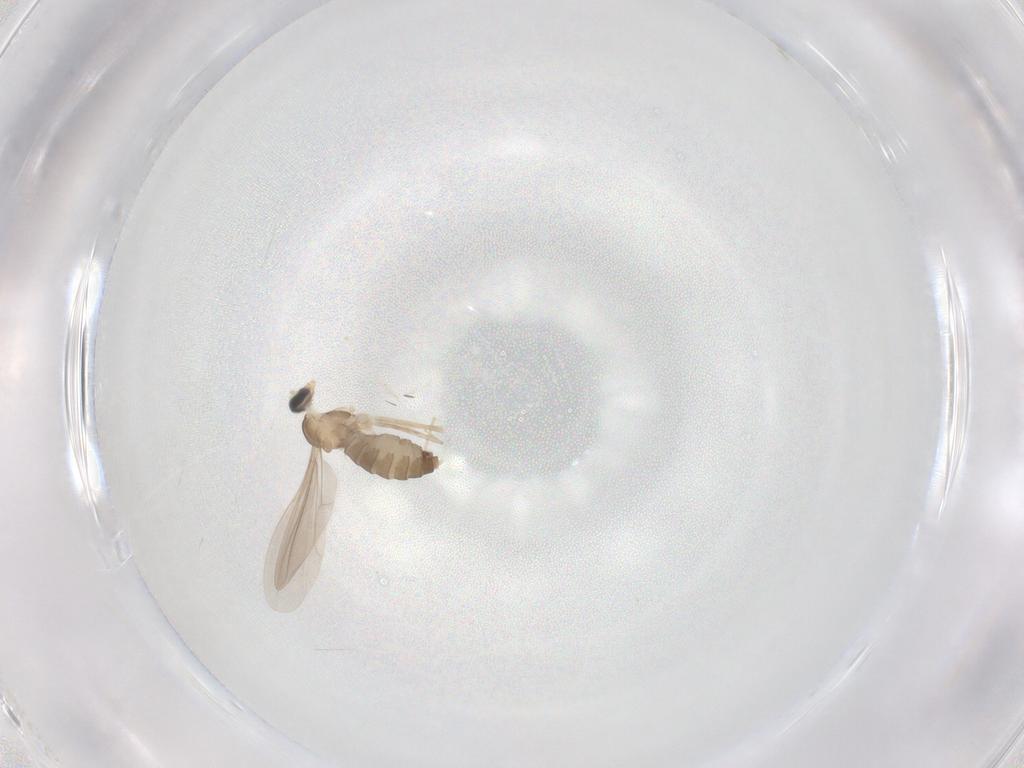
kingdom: Animalia
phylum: Arthropoda
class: Insecta
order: Diptera
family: Cecidomyiidae
